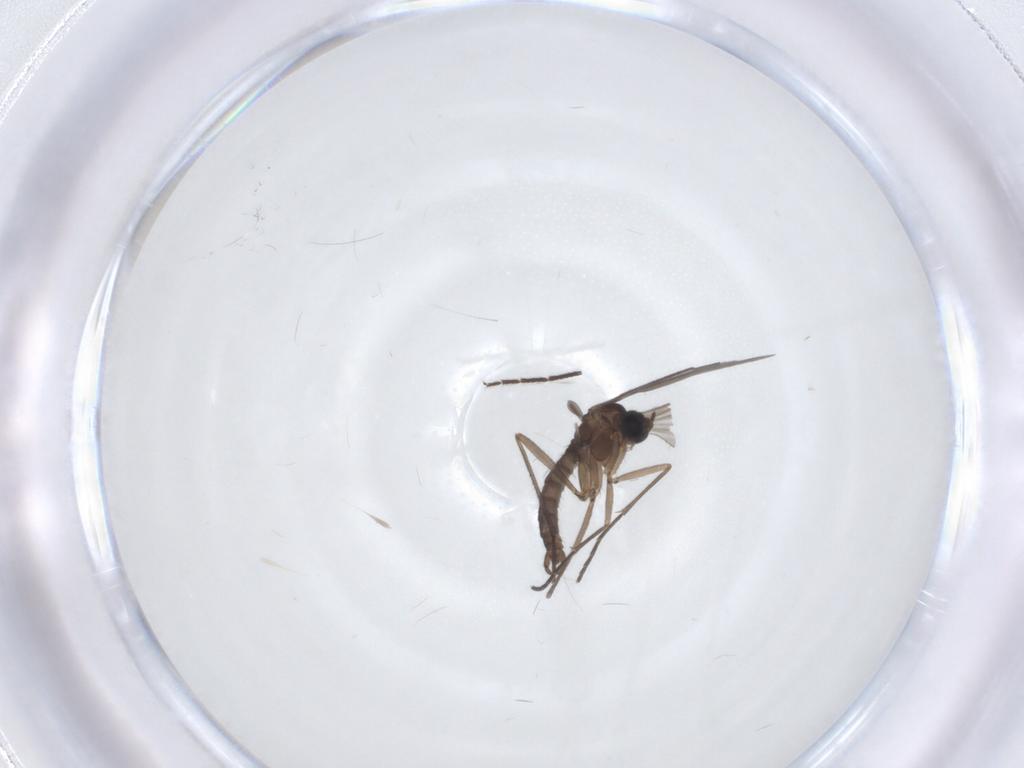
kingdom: Animalia
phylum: Arthropoda
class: Insecta
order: Diptera
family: Sciaridae
